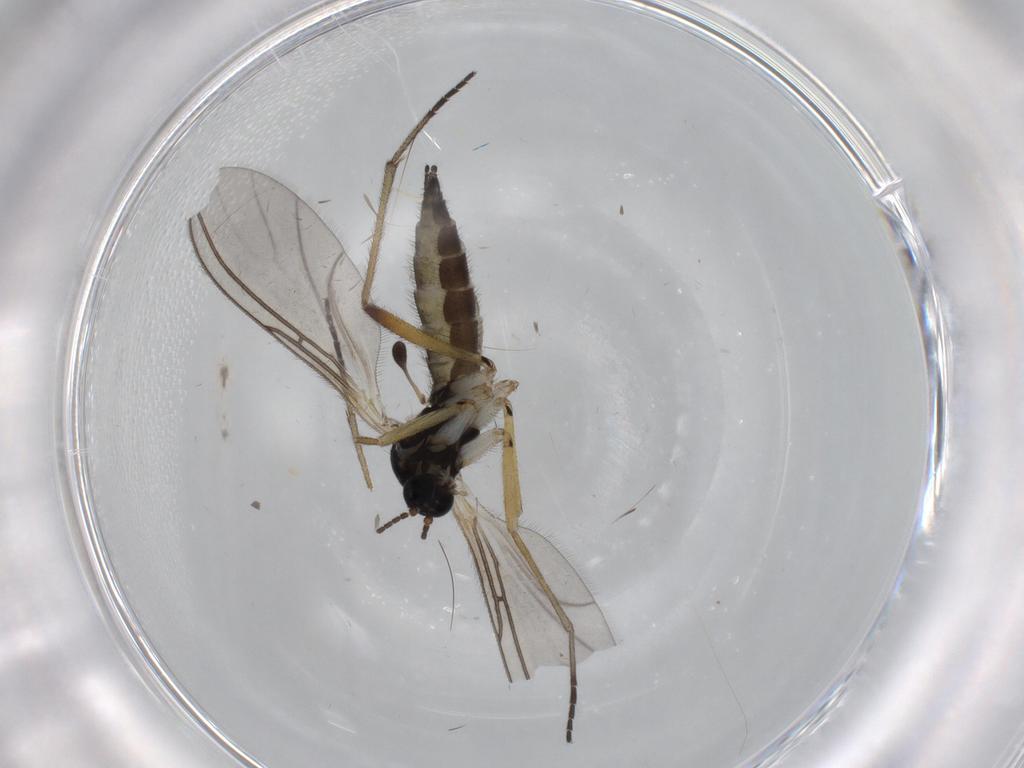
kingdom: Animalia
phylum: Arthropoda
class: Insecta
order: Diptera
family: Sciaridae
